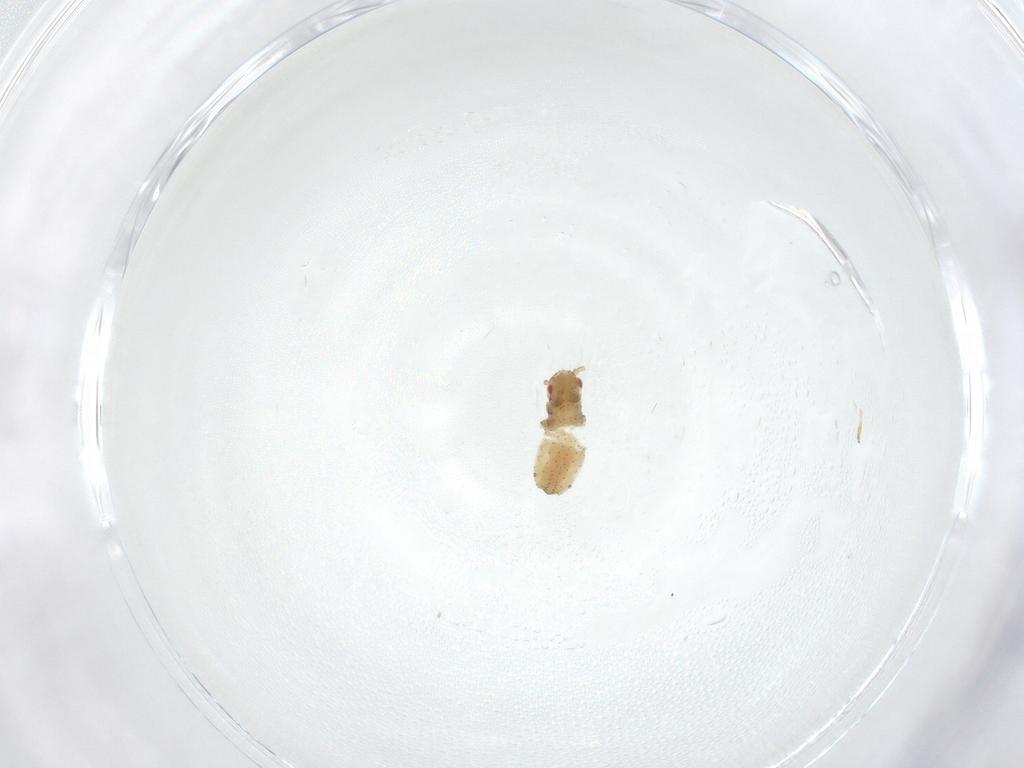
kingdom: Animalia
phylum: Arthropoda
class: Insecta
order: Hemiptera
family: Aphididae
